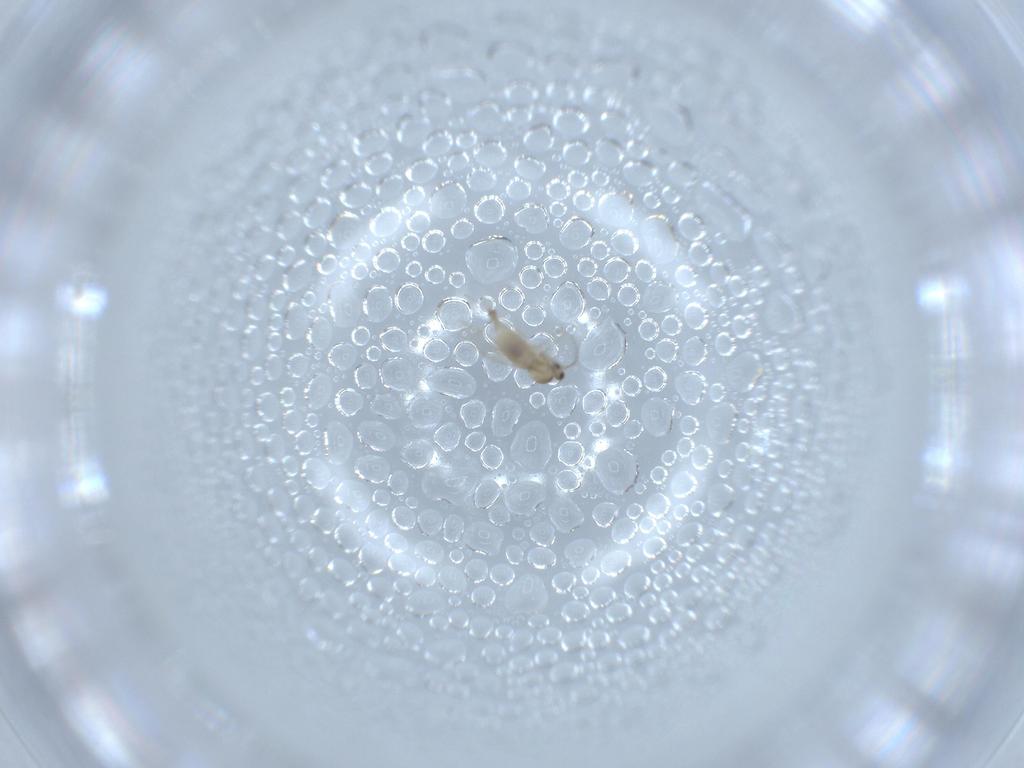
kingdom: Animalia
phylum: Arthropoda
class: Insecta
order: Diptera
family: Cecidomyiidae
